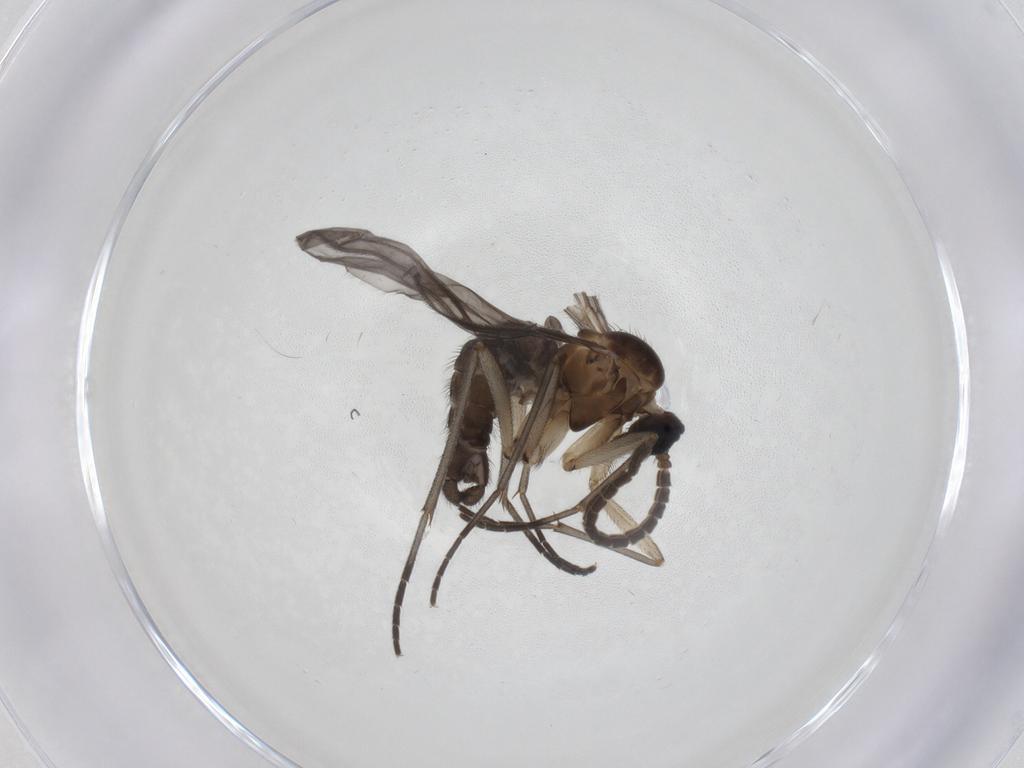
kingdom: Animalia
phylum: Arthropoda
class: Insecta
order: Diptera
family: Sciaridae
